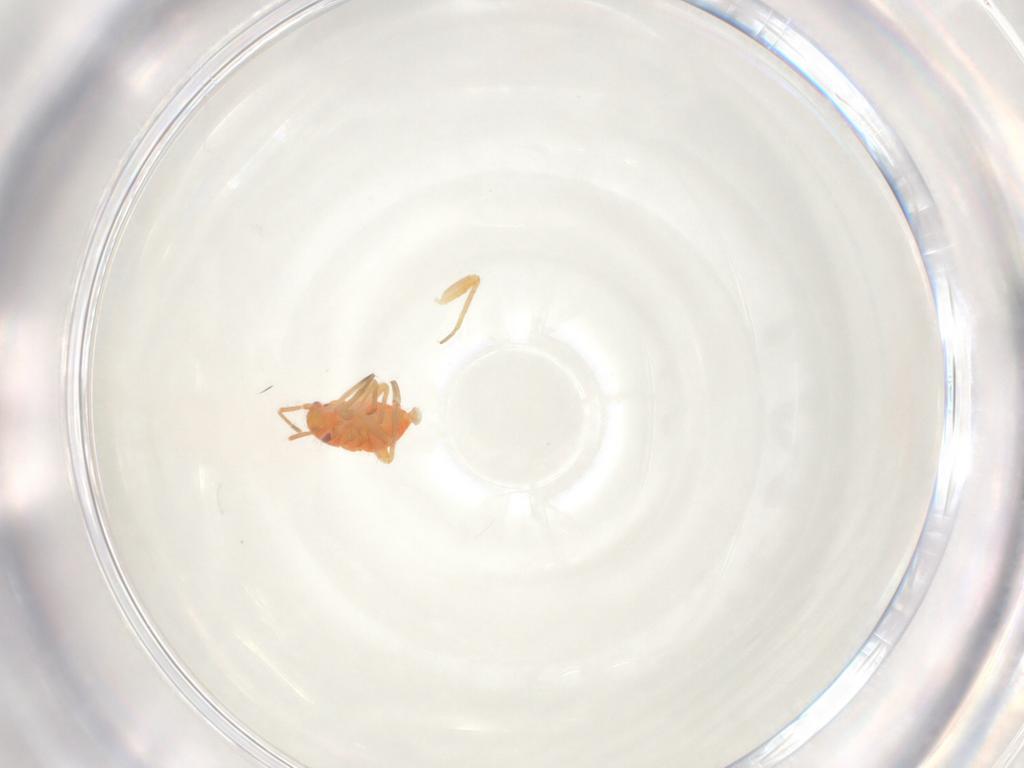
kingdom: Animalia
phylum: Arthropoda
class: Insecta
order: Hemiptera
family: Miridae
